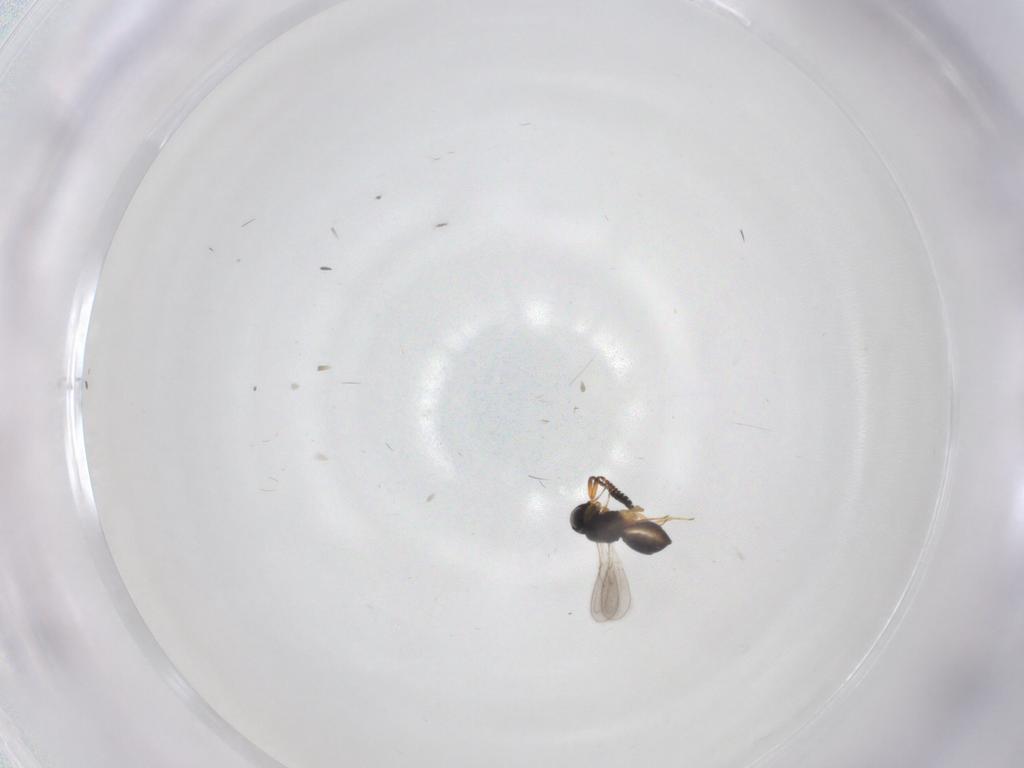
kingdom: Animalia
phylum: Arthropoda
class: Insecta
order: Hymenoptera
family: Scelionidae
